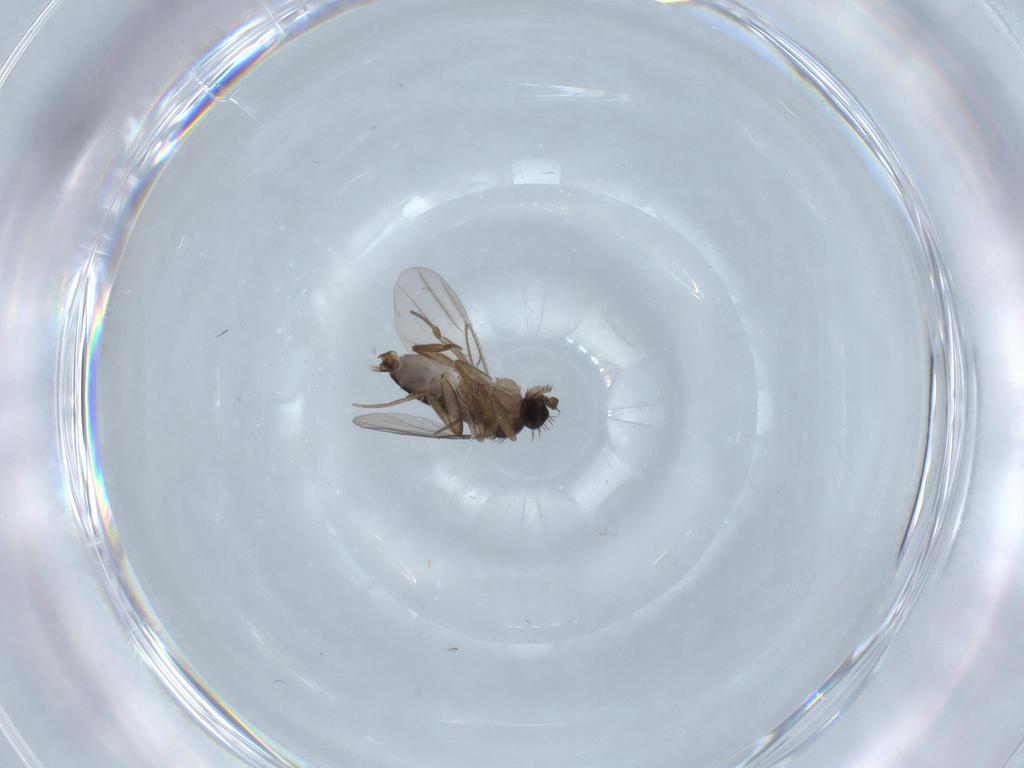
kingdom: Animalia
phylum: Arthropoda
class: Insecta
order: Diptera
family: Phoridae
